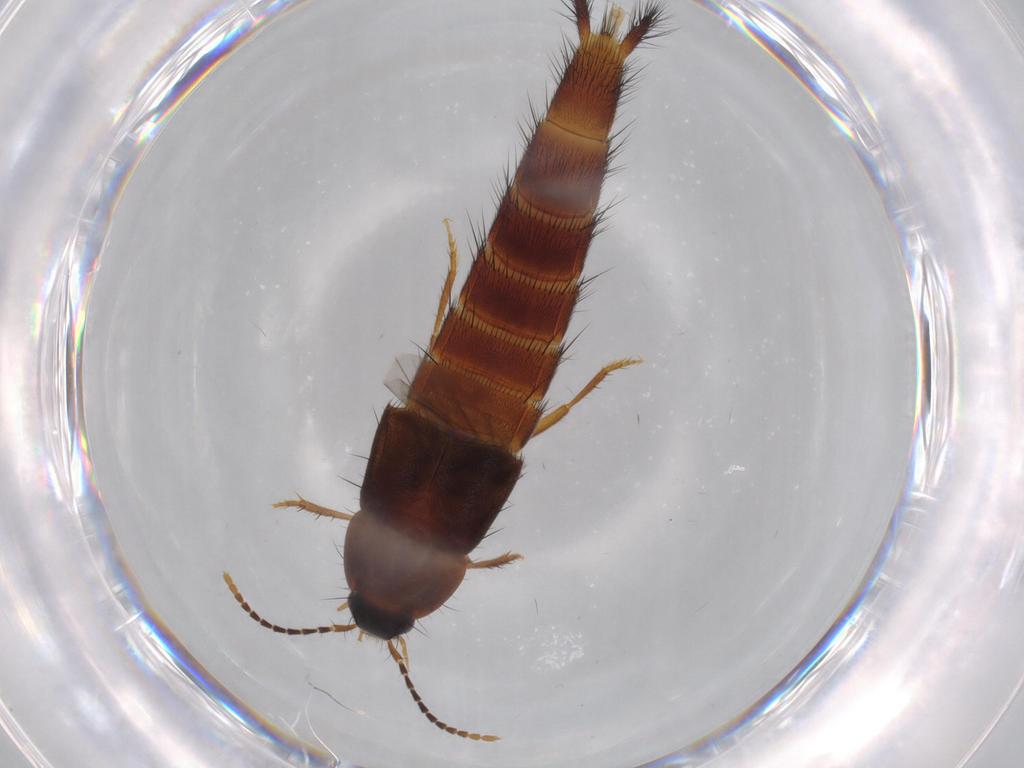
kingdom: Animalia
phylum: Arthropoda
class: Insecta
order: Coleoptera
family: Staphylinidae
